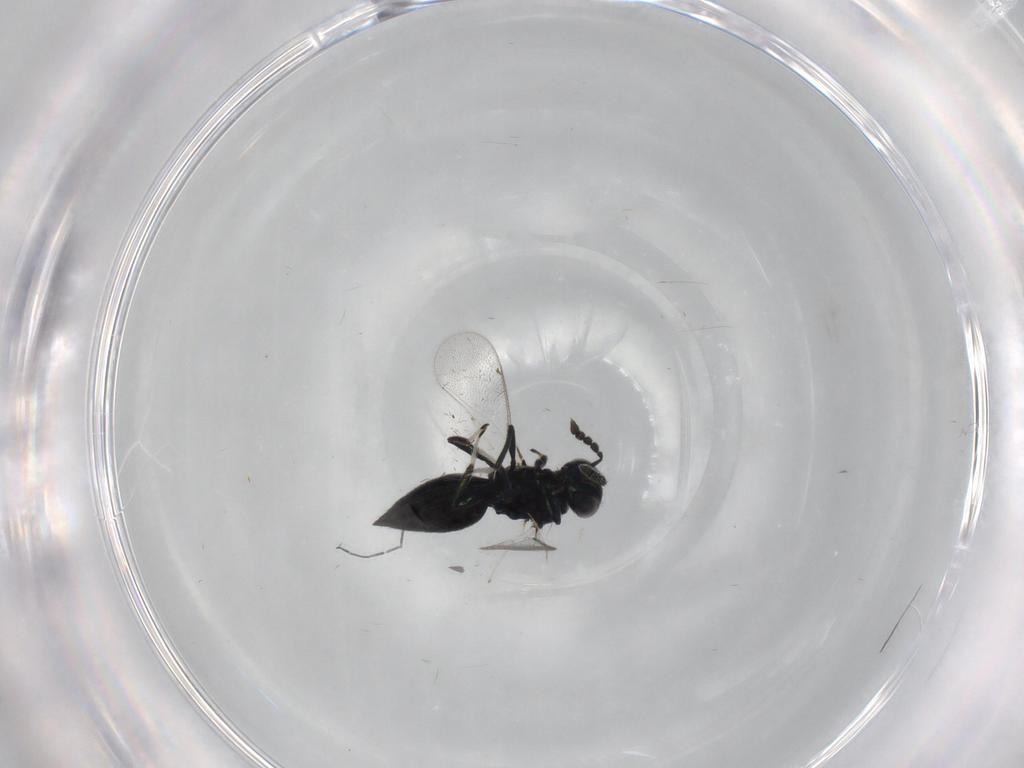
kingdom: Animalia
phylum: Arthropoda
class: Insecta
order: Hymenoptera
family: Eulophidae
